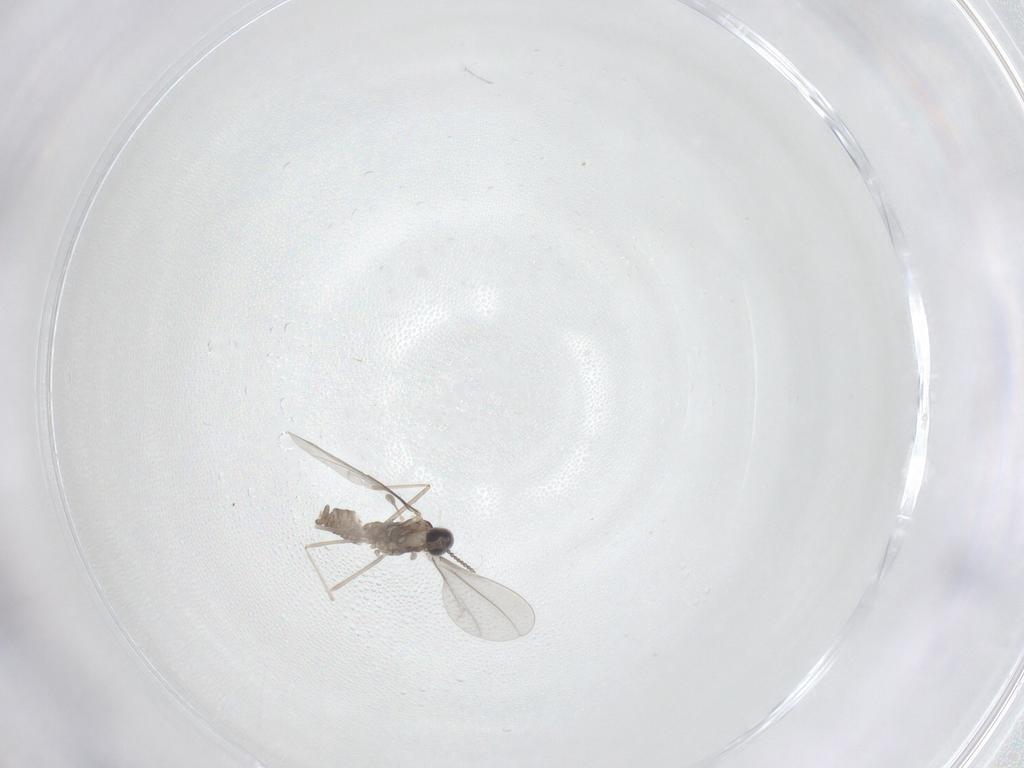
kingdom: Animalia
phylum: Arthropoda
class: Insecta
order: Diptera
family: Cecidomyiidae
